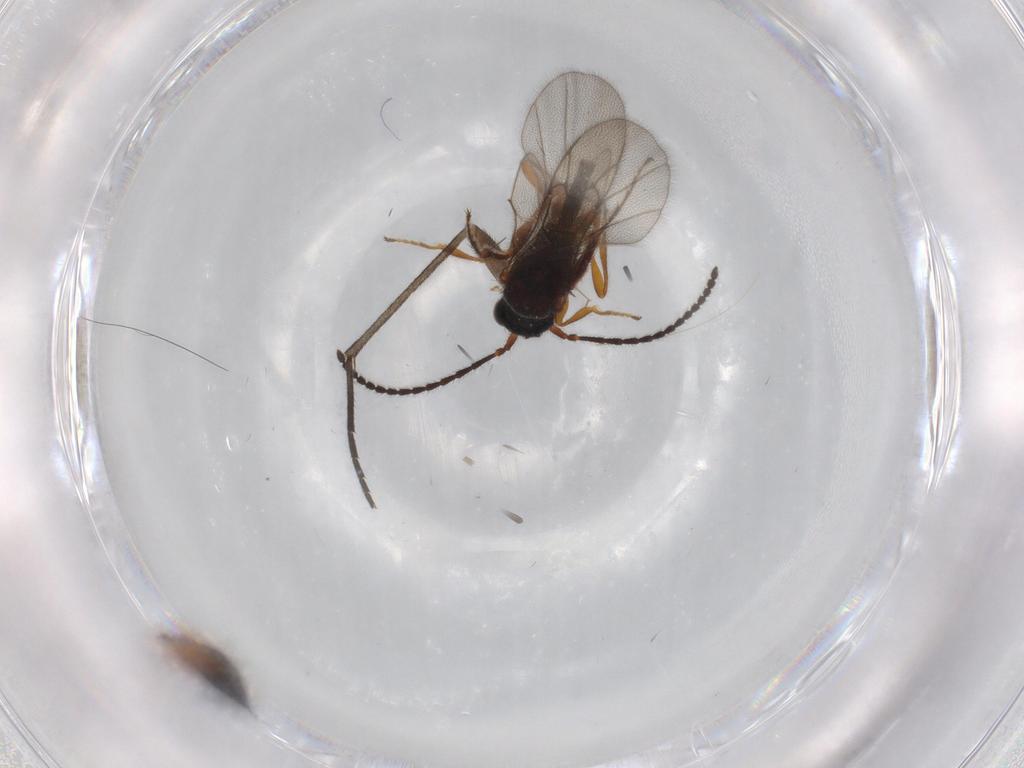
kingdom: Animalia
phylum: Arthropoda
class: Insecta
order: Hymenoptera
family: Diapriidae
